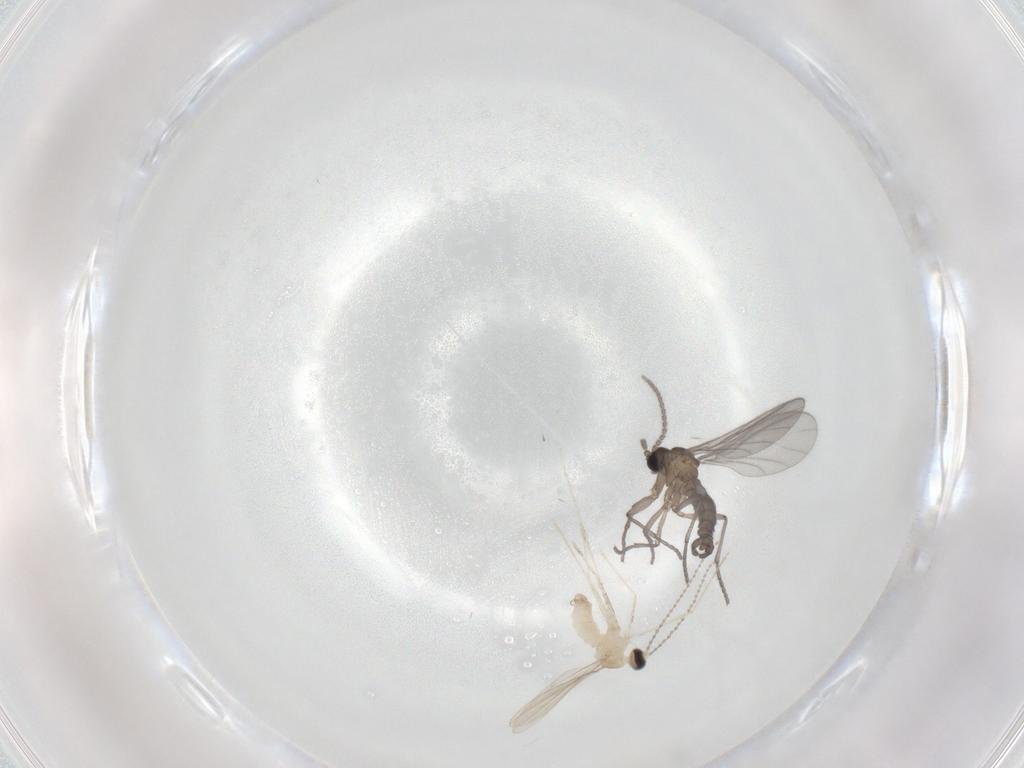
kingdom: Animalia
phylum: Arthropoda
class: Insecta
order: Diptera
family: Sciaridae
